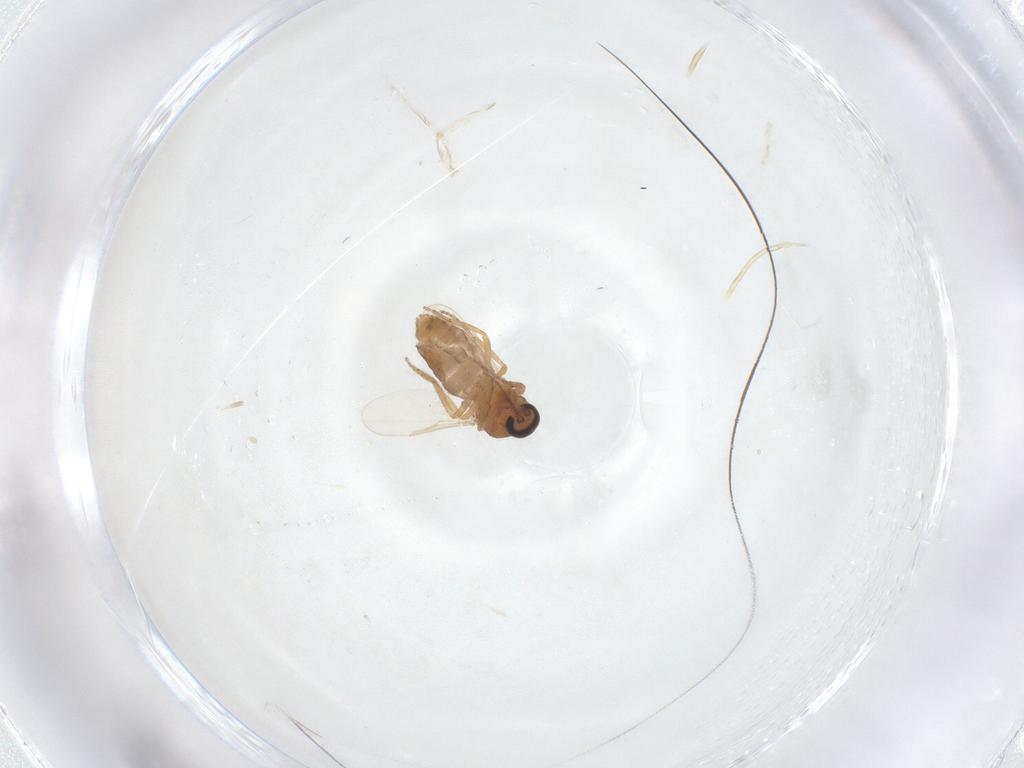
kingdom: Animalia
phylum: Arthropoda
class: Insecta
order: Diptera
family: Ceratopogonidae
